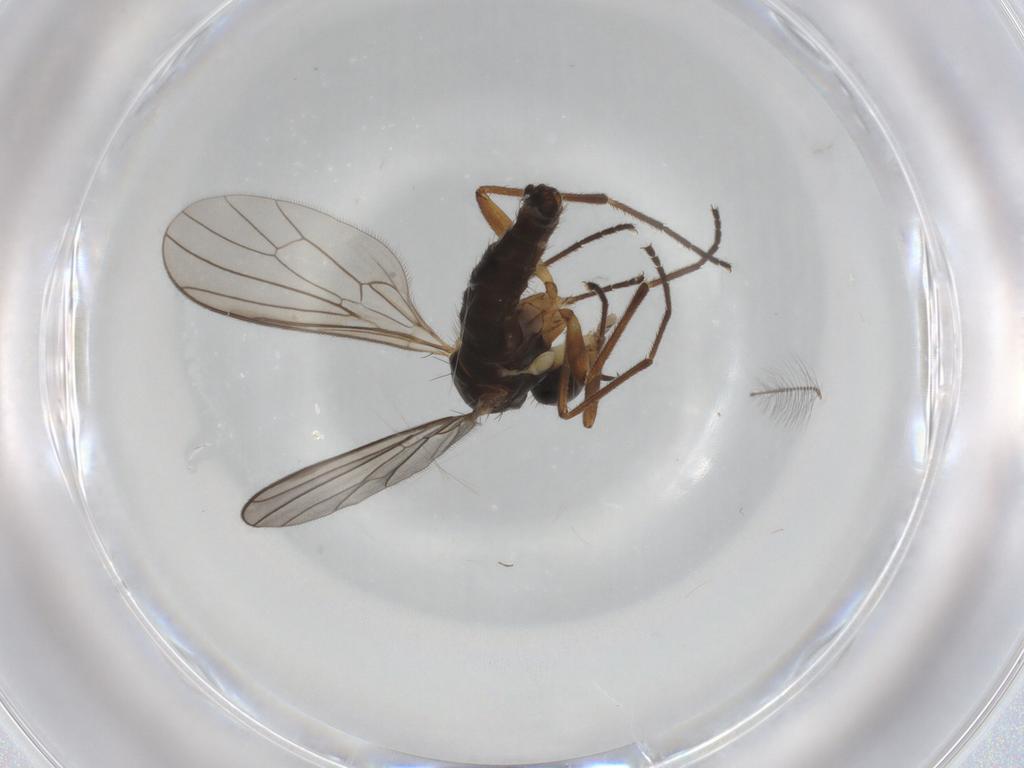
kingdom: Animalia
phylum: Arthropoda
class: Insecta
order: Diptera
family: Empididae
